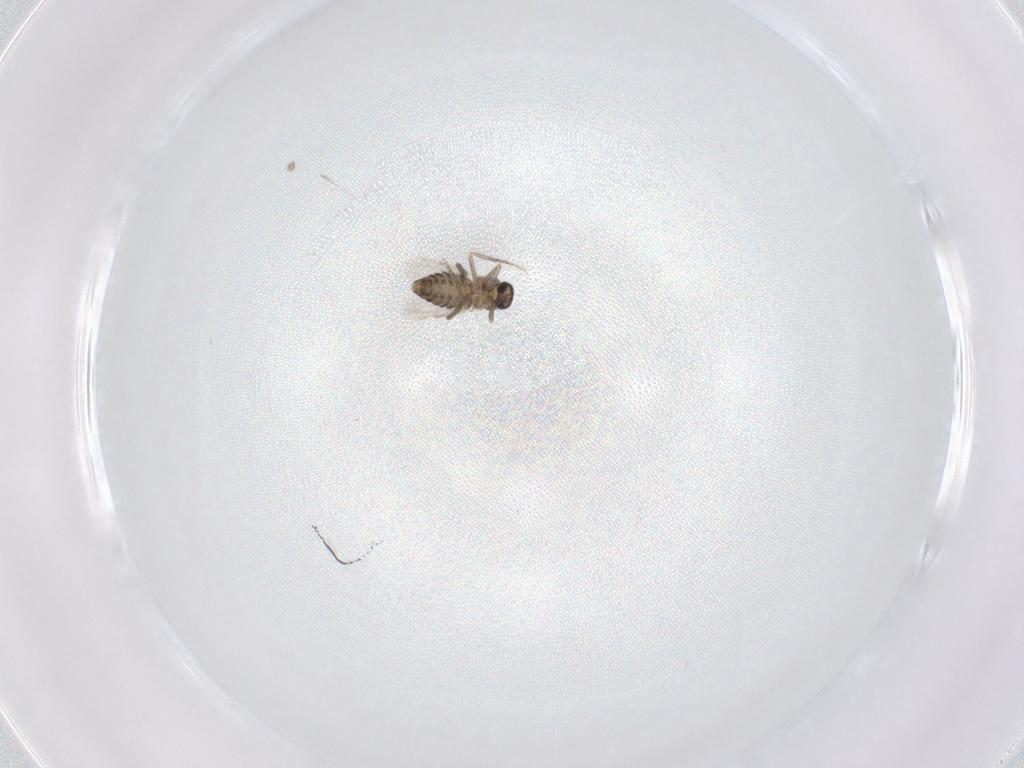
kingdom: Animalia
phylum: Arthropoda
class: Insecta
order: Diptera
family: Ceratopogonidae
